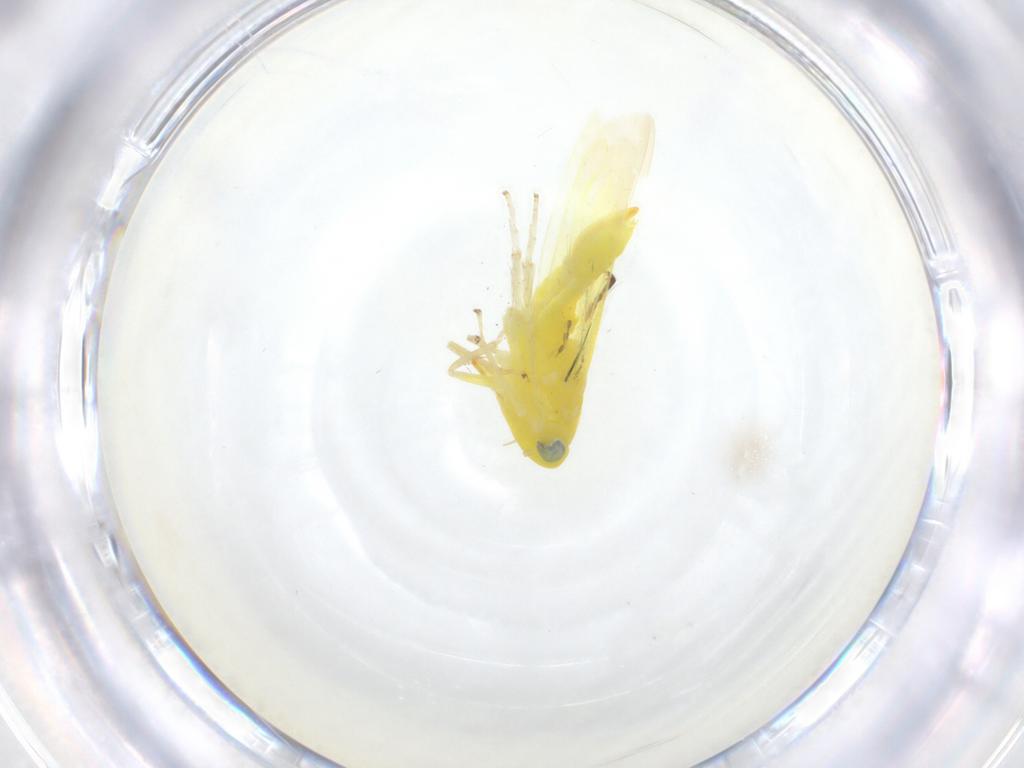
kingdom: Animalia
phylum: Arthropoda
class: Insecta
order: Hemiptera
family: Cicadellidae
